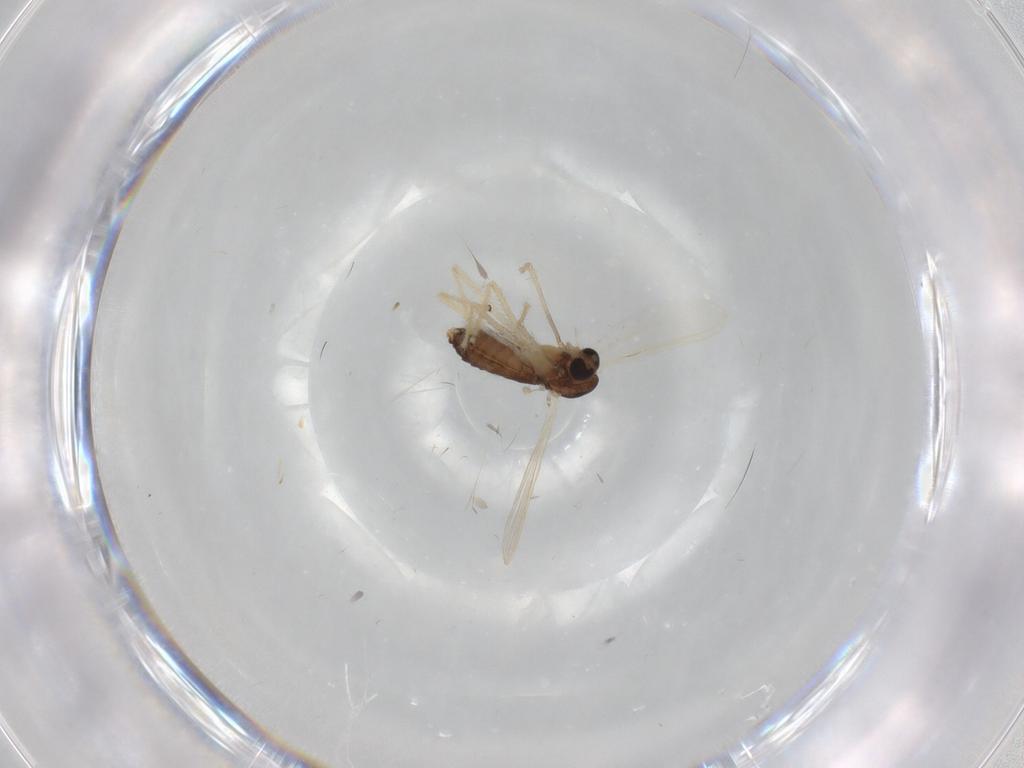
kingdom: Animalia
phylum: Arthropoda
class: Insecta
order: Diptera
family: Chironomidae
